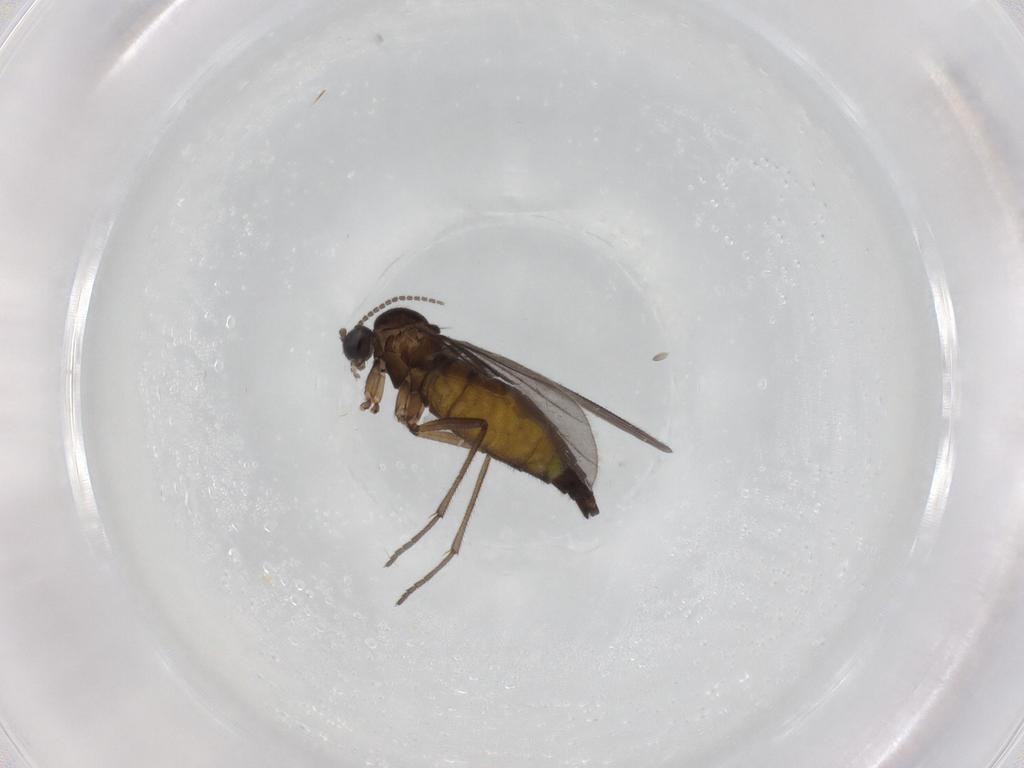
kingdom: Animalia
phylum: Arthropoda
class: Insecta
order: Diptera
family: Sciaridae
